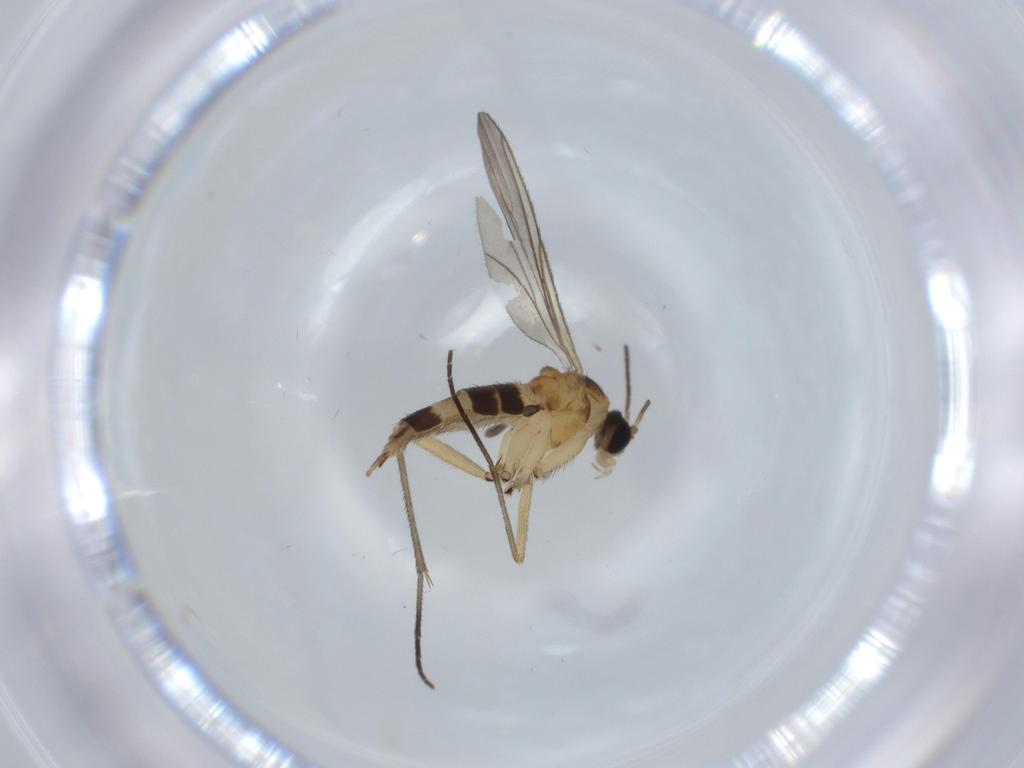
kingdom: Animalia
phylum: Arthropoda
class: Insecta
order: Diptera
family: Sciaridae
